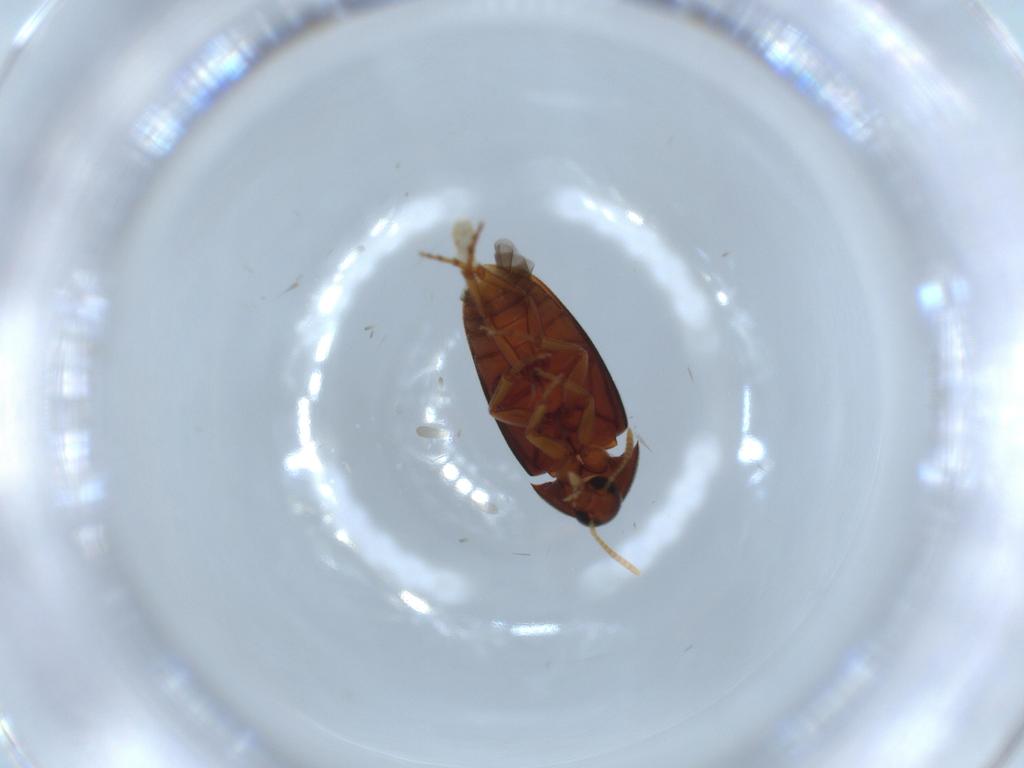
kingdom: Animalia
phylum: Arthropoda
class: Insecta
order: Coleoptera
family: Scraptiidae
